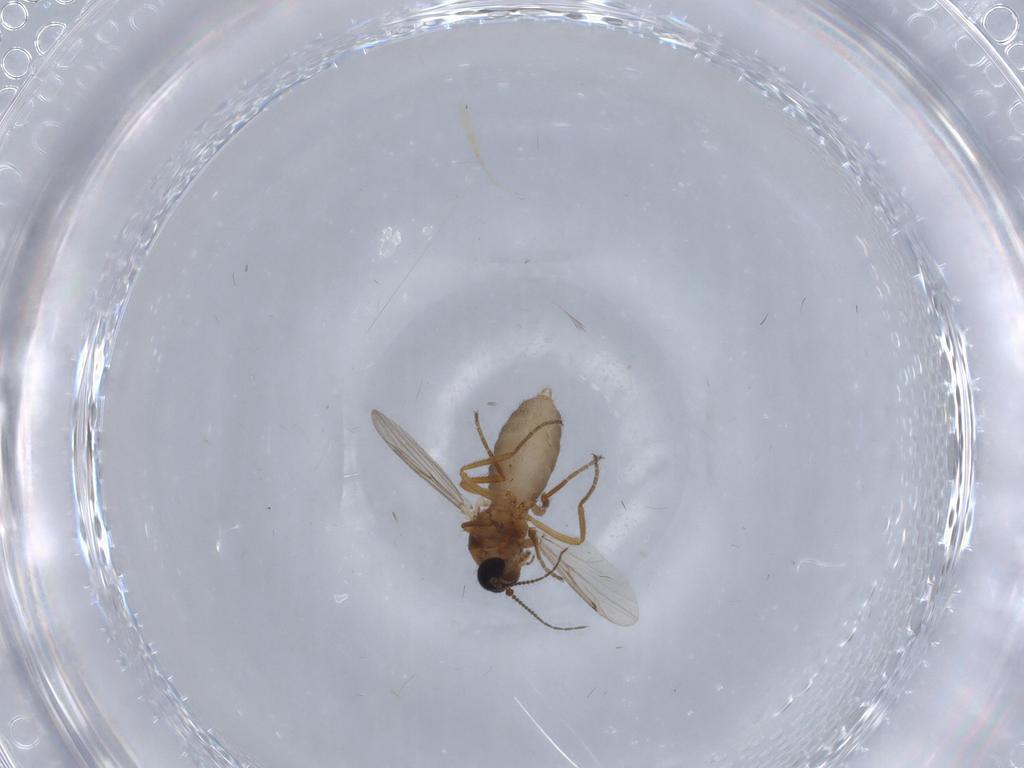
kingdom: Animalia
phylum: Arthropoda
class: Insecta
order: Diptera
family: Ceratopogonidae
